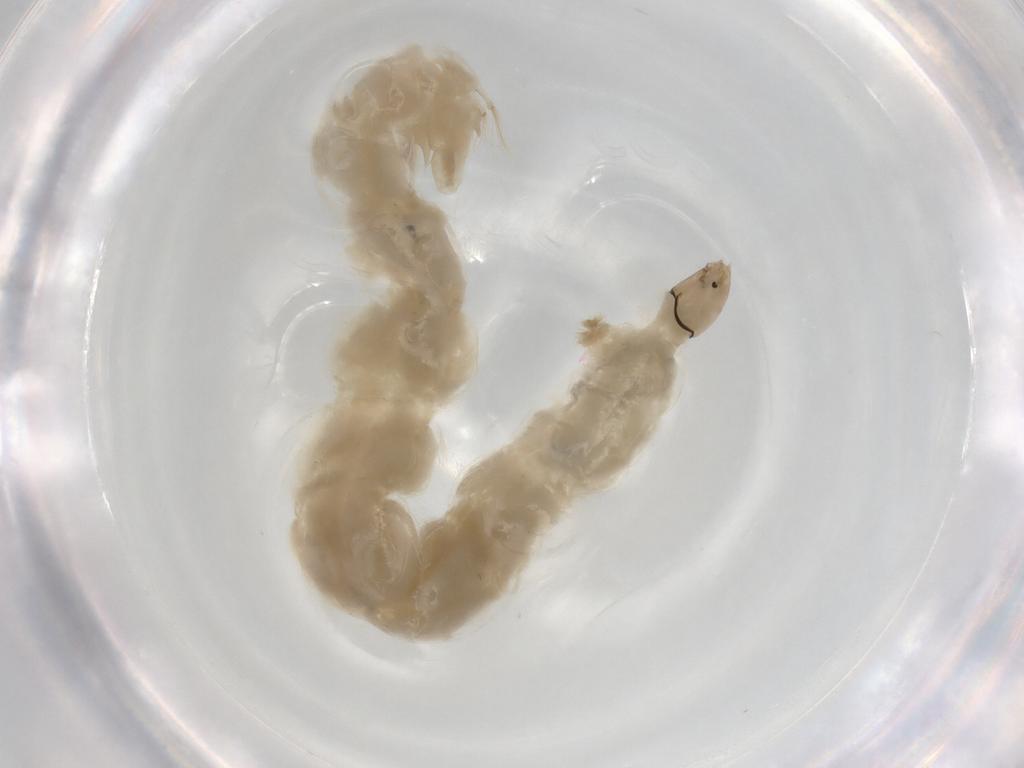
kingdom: Animalia
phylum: Arthropoda
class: Insecta
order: Diptera
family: Chironomidae
